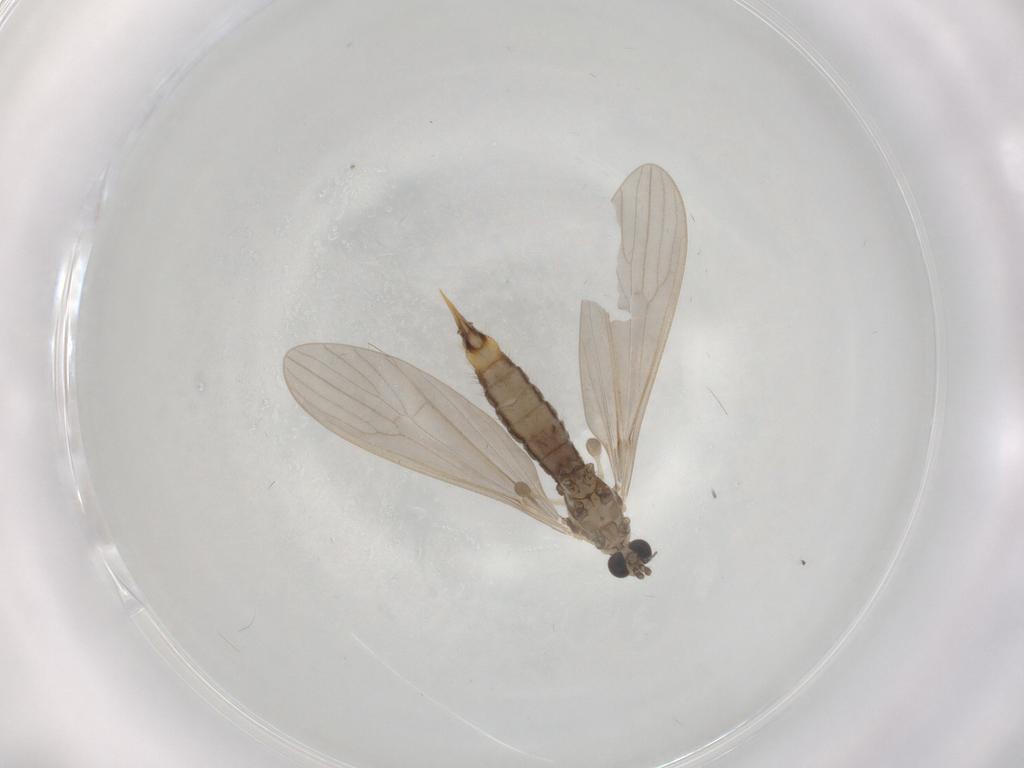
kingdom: Animalia
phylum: Arthropoda
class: Insecta
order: Diptera
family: Limoniidae
